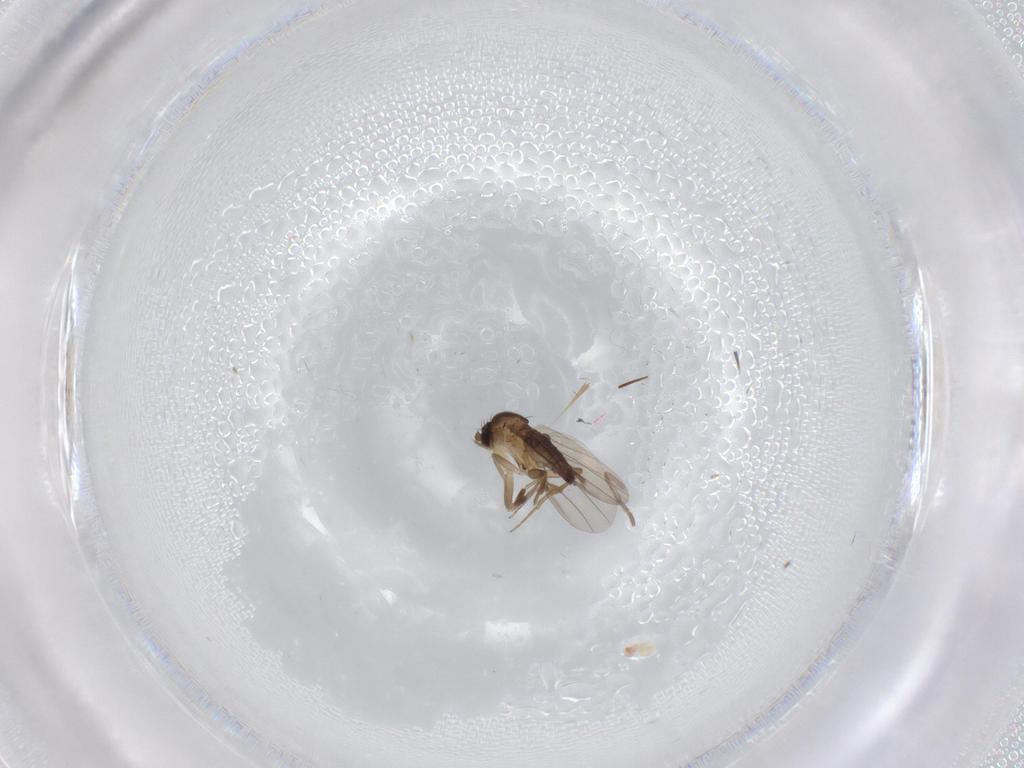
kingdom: Animalia
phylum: Arthropoda
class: Insecta
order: Diptera
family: Phoridae
